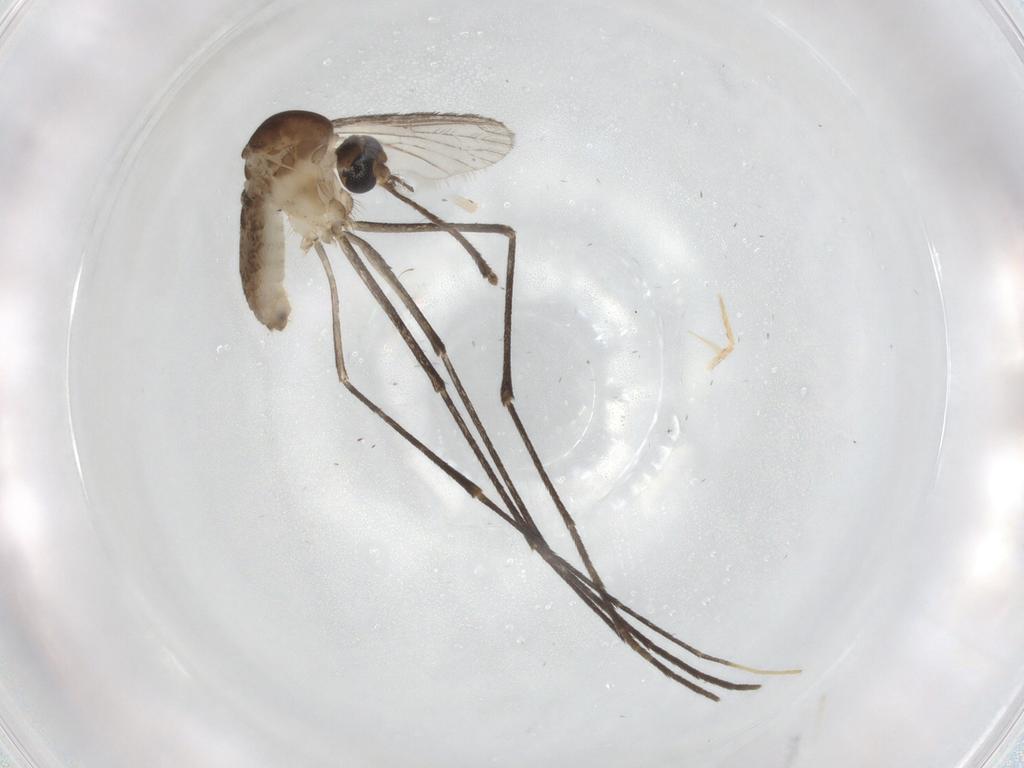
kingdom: Animalia
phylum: Arthropoda
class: Insecta
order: Diptera
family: Culicidae
